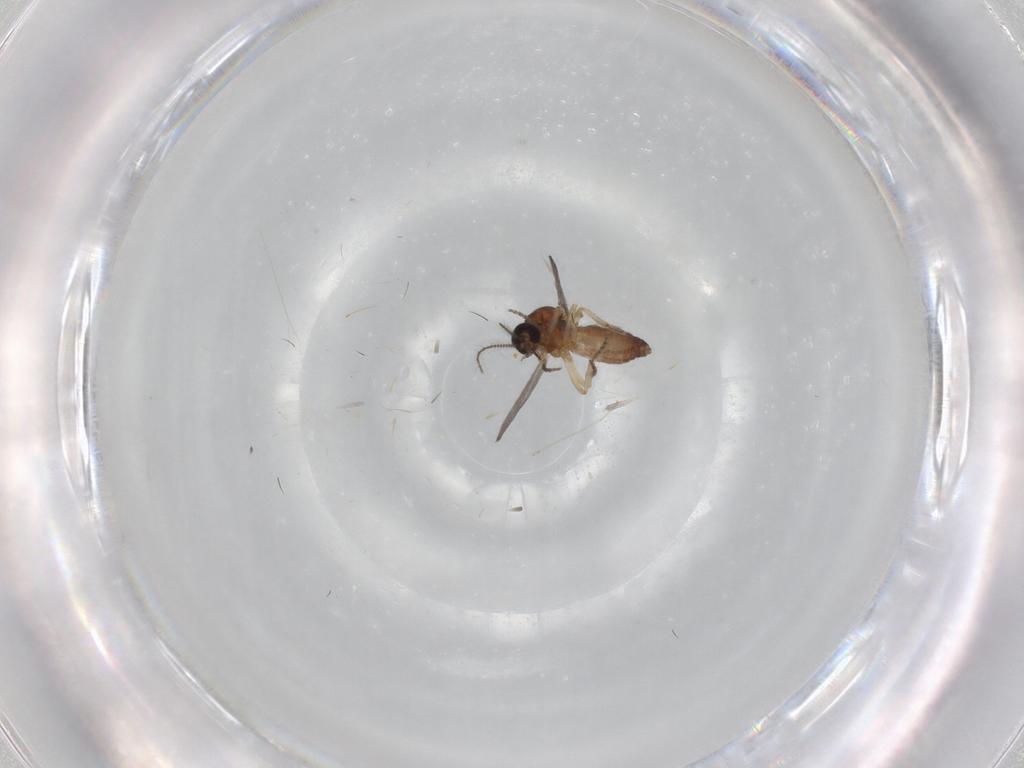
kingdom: Animalia
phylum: Arthropoda
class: Insecta
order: Diptera
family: Ceratopogonidae
